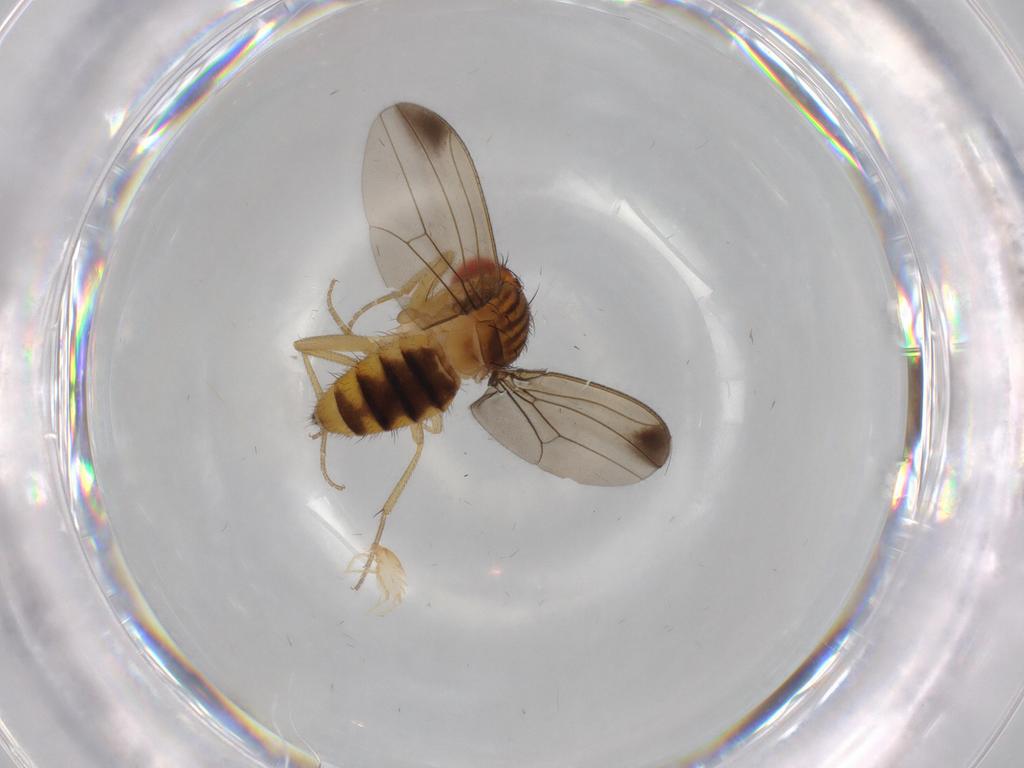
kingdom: Animalia
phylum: Arthropoda
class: Insecta
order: Diptera
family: Drosophilidae
